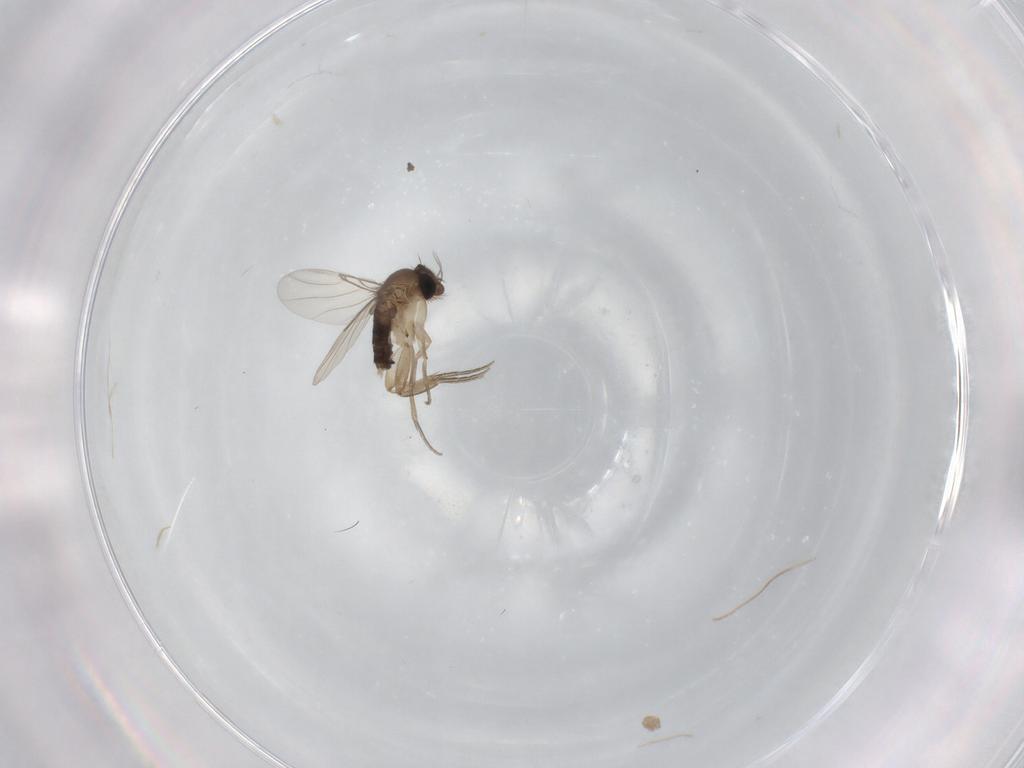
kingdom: Animalia
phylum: Arthropoda
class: Insecta
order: Diptera
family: Phoridae
